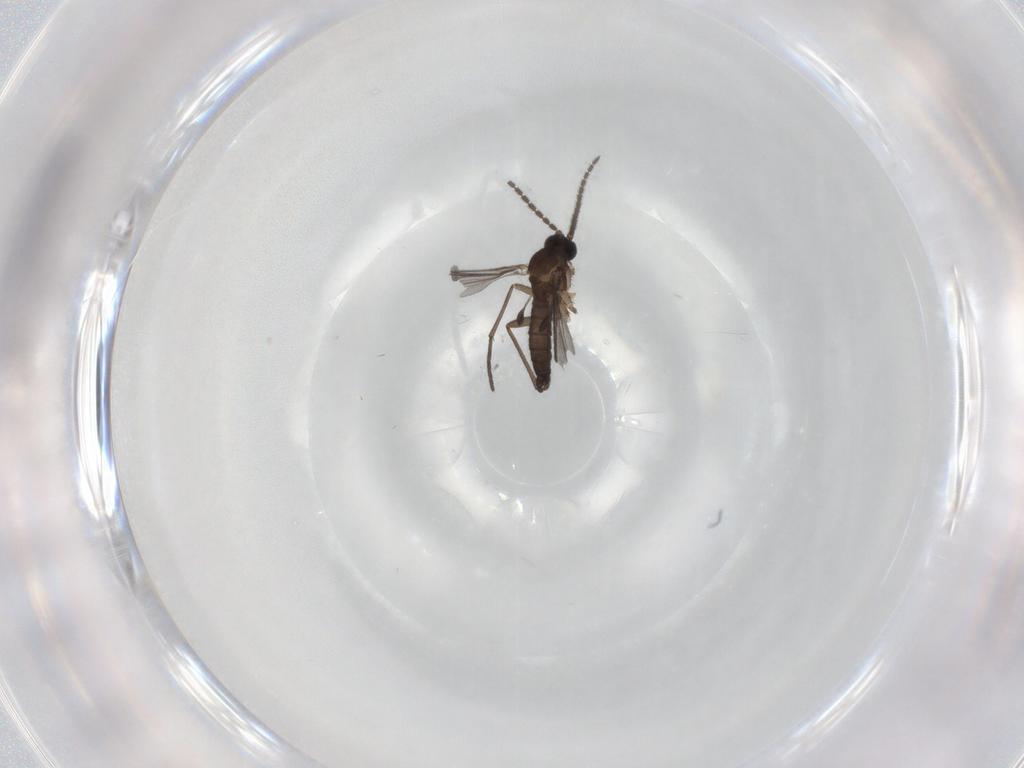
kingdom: Animalia
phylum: Arthropoda
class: Insecta
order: Diptera
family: Sciaridae
